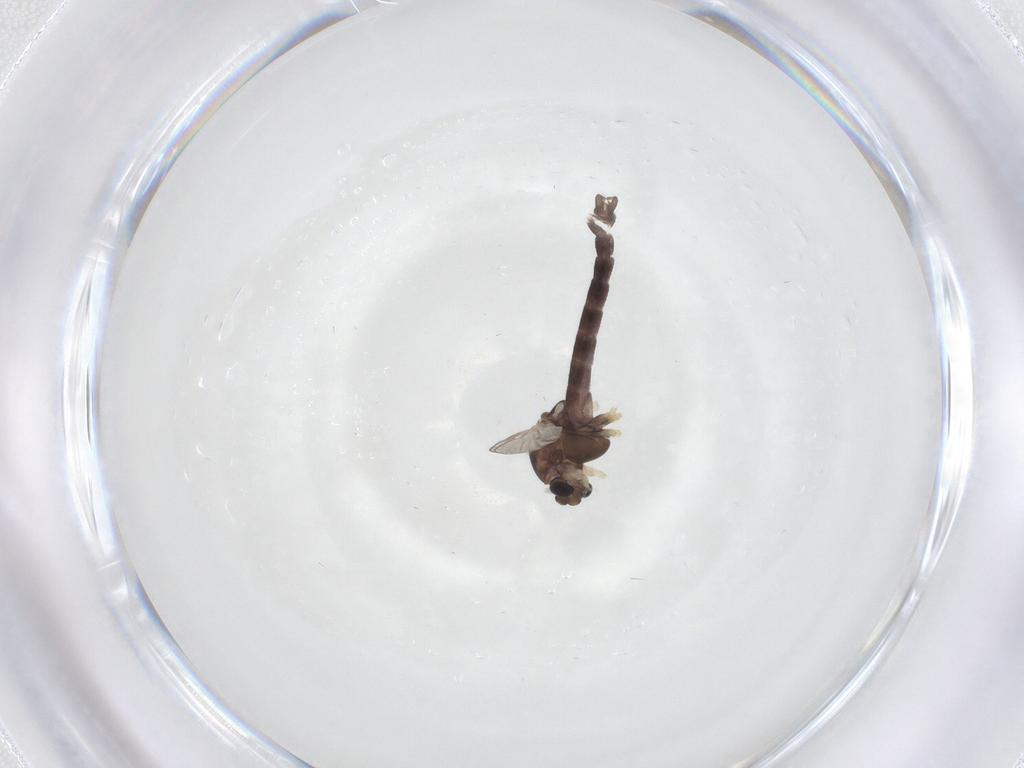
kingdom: Animalia
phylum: Arthropoda
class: Insecta
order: Diptera
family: Chironomidae
